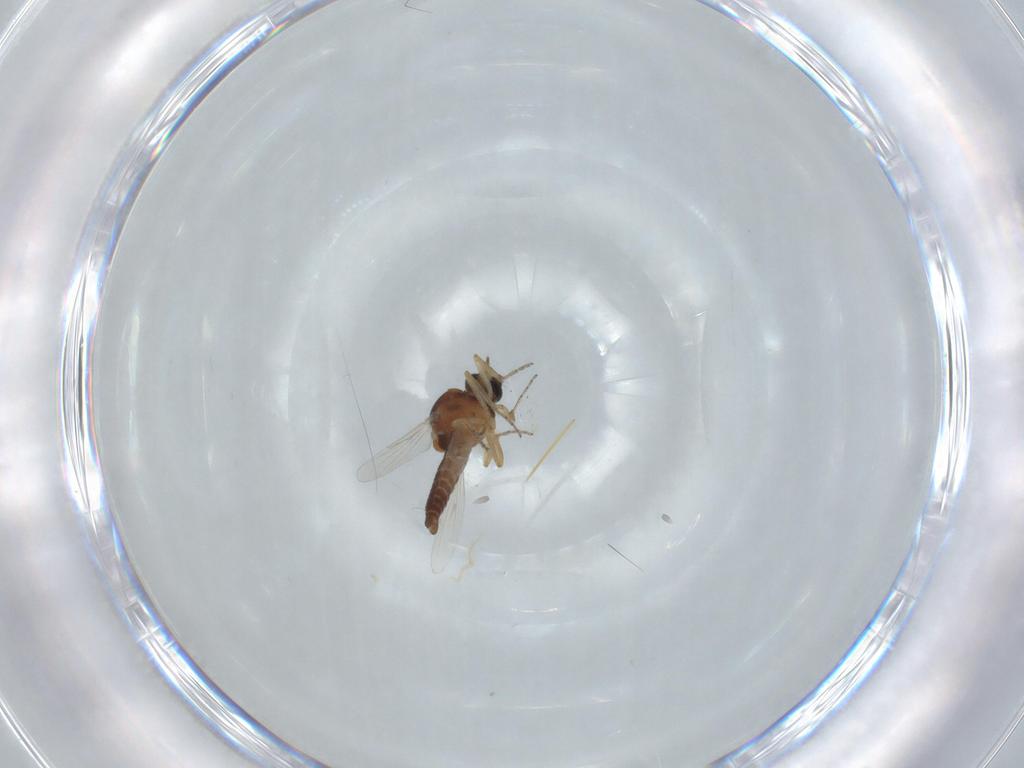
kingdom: Animalia
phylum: Arthropoda
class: Insecta
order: Diptera
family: Ceratopogonidae
